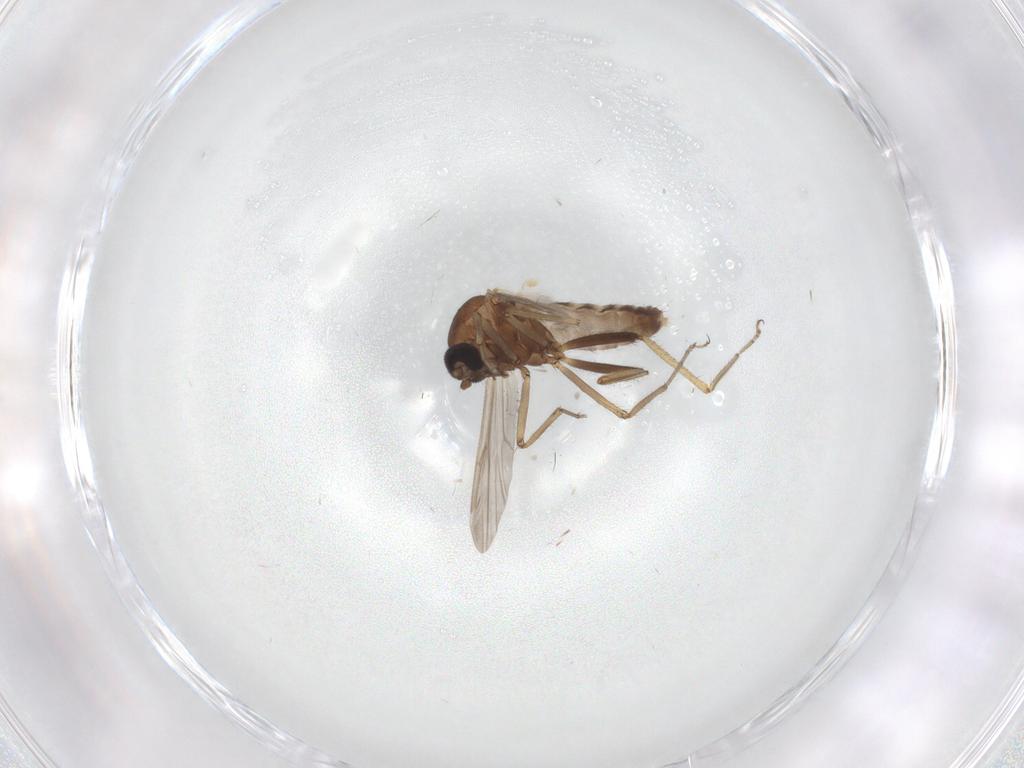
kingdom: Animalia
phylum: Arthropoda
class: Insecta
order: Diptera
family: Ceratopogonidae
